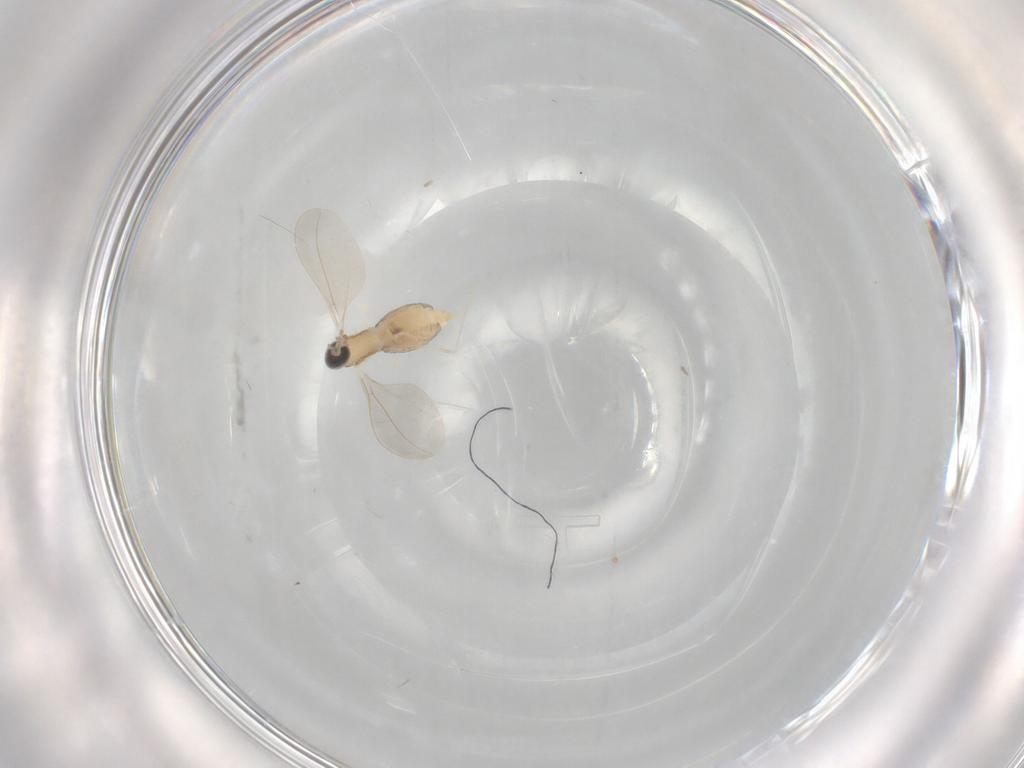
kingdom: Animalia
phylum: Arthropoda
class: Insecta
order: Diptera
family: Cecidomyiidae
